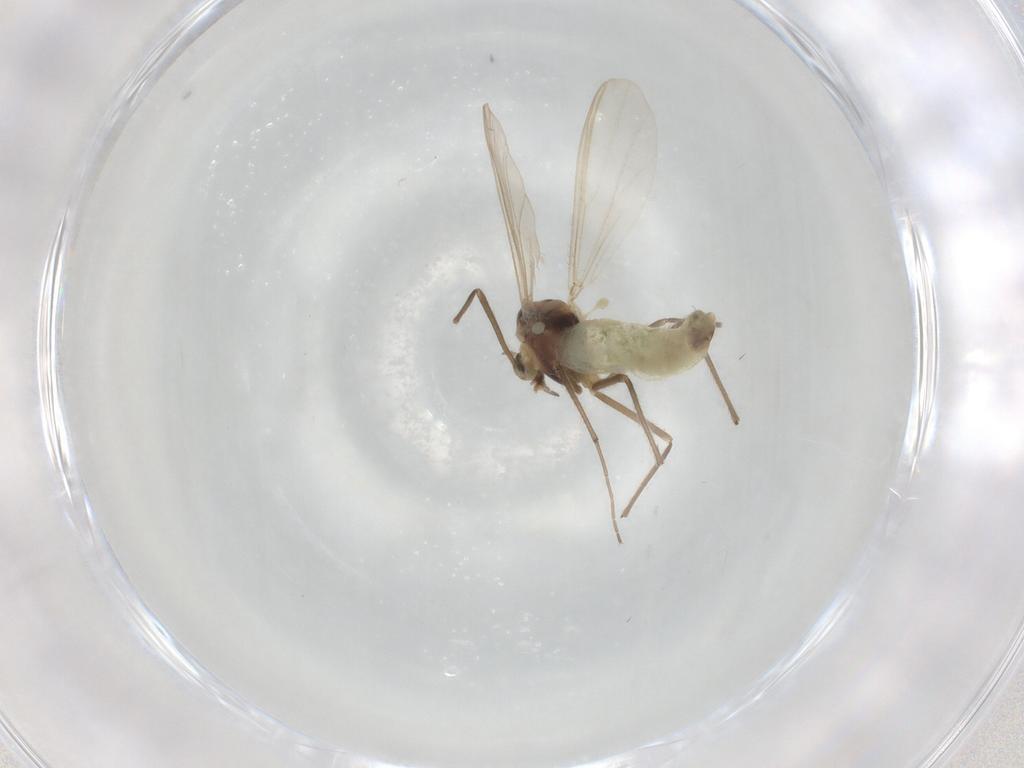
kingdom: Animalia
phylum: Arthropoda
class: Insecta
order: Diptera
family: Chironomidae
